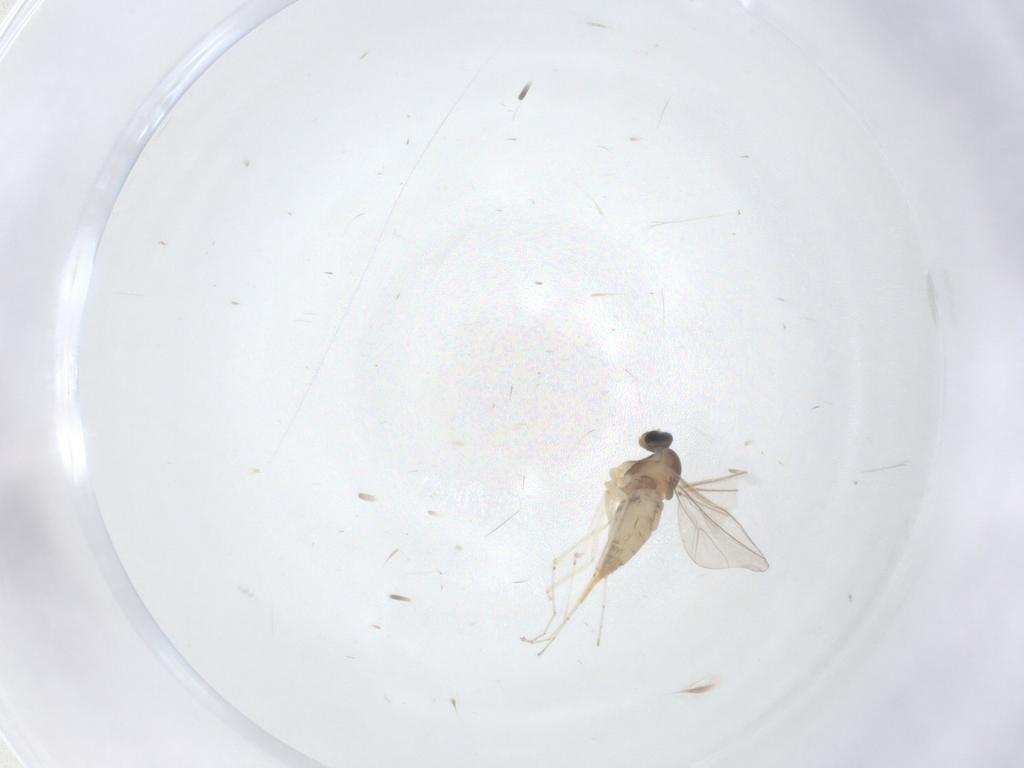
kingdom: Animalia
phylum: Arthropoda
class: Insecta
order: Diptera
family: Cecidomyiidae
